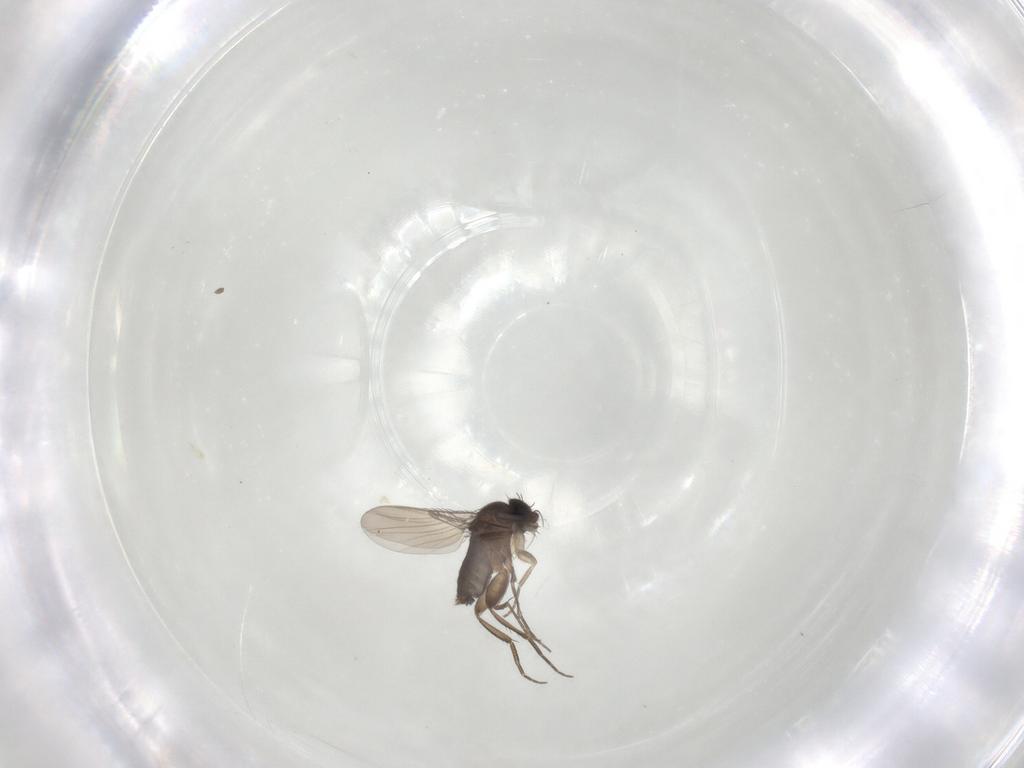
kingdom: Animalia
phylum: Arthropoda
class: Insecta
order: Diptera
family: Phoridae
